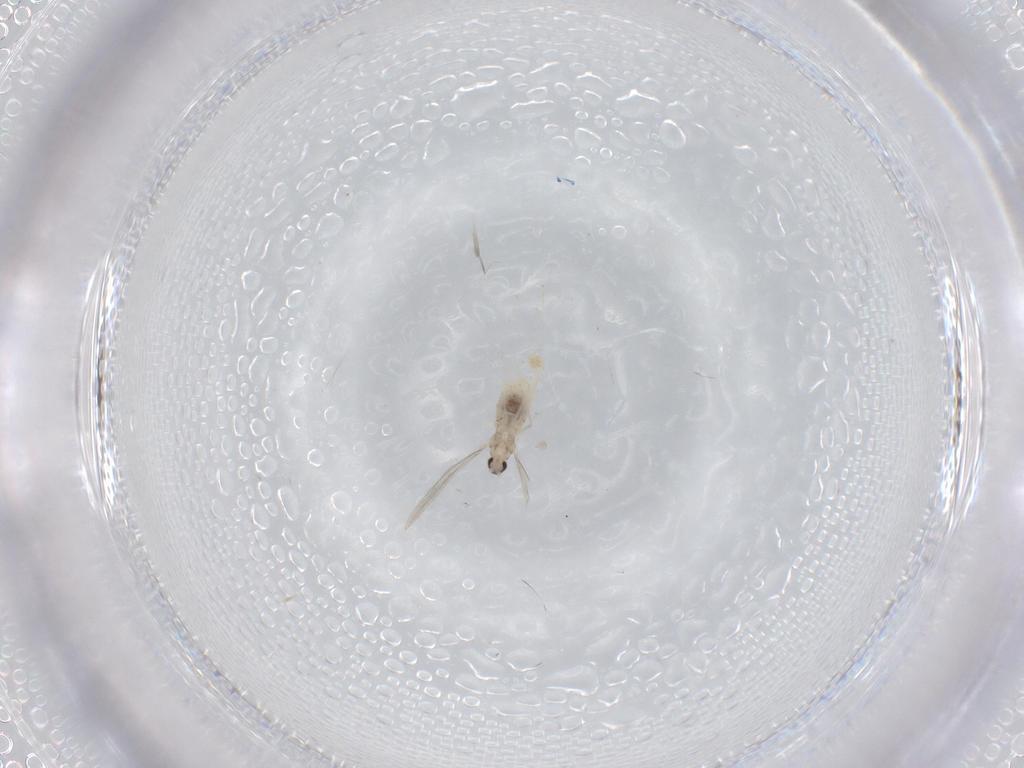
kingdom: Animalia
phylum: Arthropoda
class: Insecta
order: Diptera
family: Cecidomyiidae
